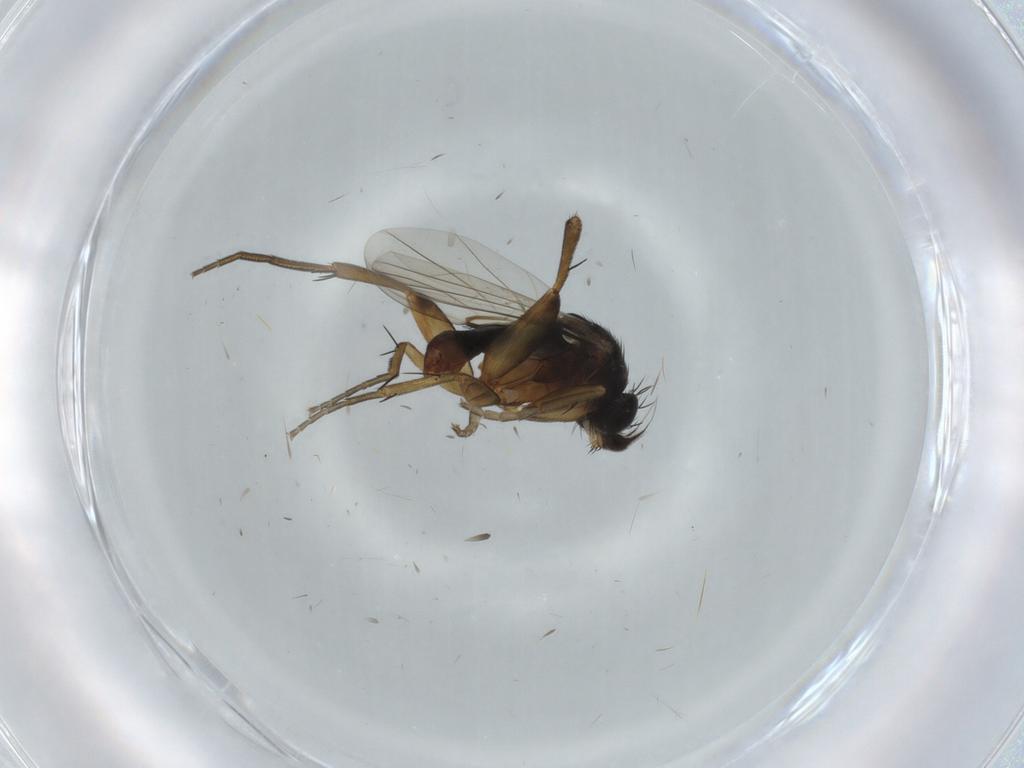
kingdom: Animalia
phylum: Arthropoda
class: Insecta
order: Diptera
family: Phoridae
